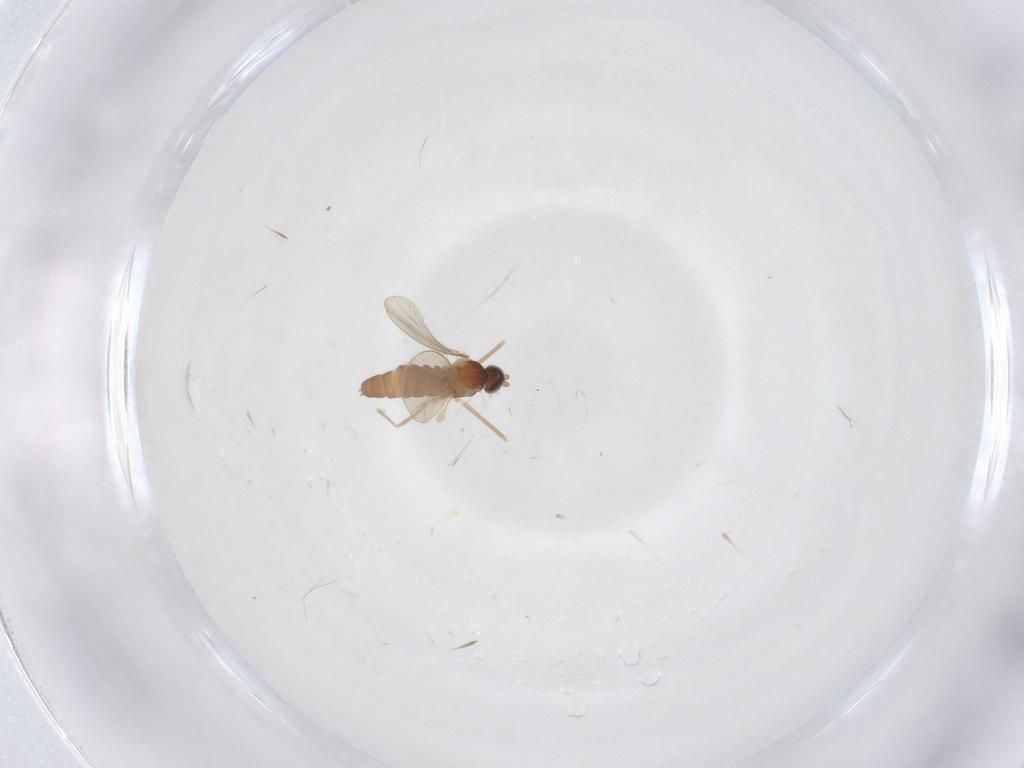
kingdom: Animalia
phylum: Arthropoda
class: Insecta
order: Diptera
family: Cecidomyiidae
